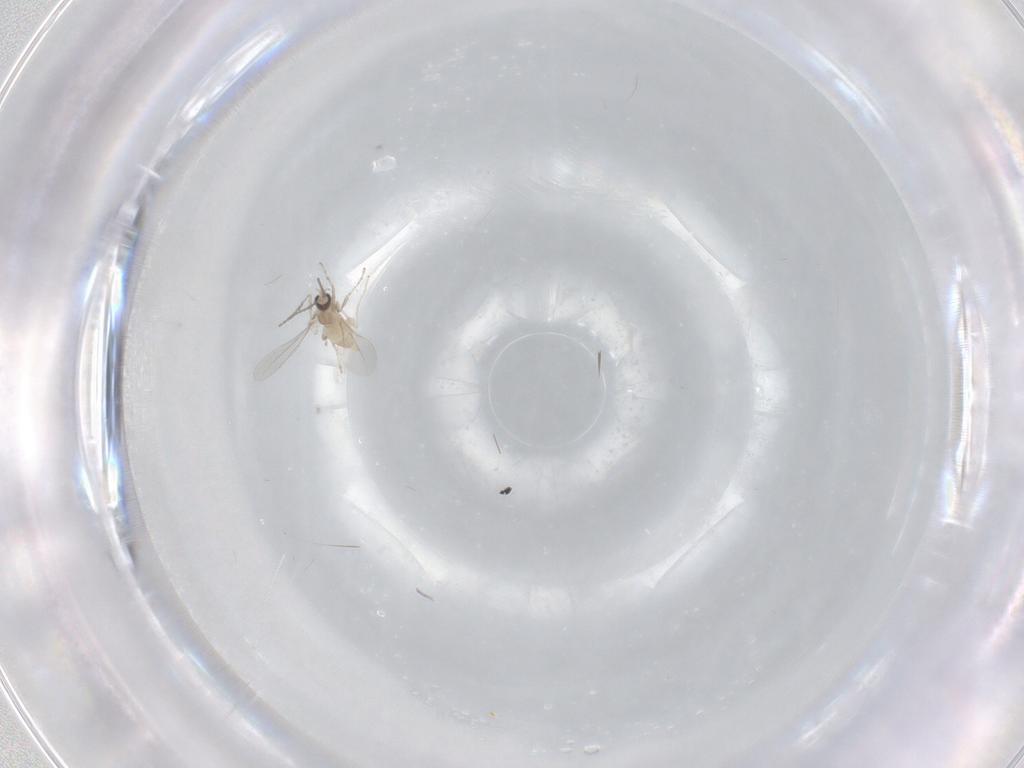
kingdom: Animalia
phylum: Arthropoda
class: Insecta
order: Diptera
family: Cecidomyiidae
